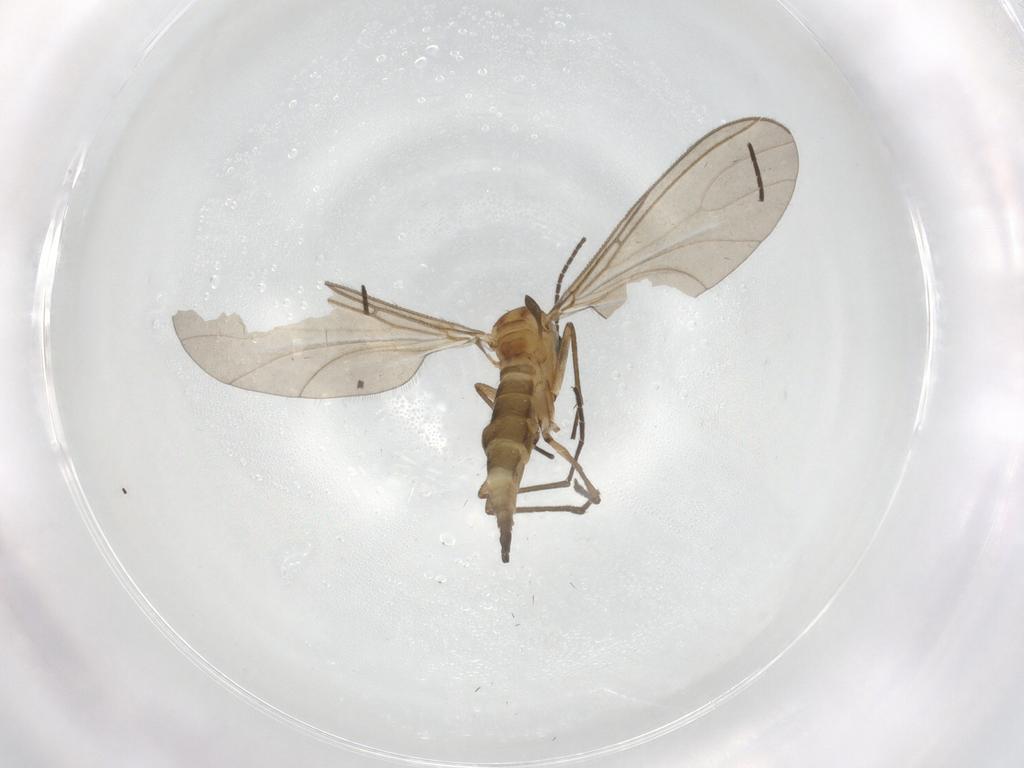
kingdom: Animalia
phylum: Arthropoda
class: Insecta
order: Diptera
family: Sciaridae
